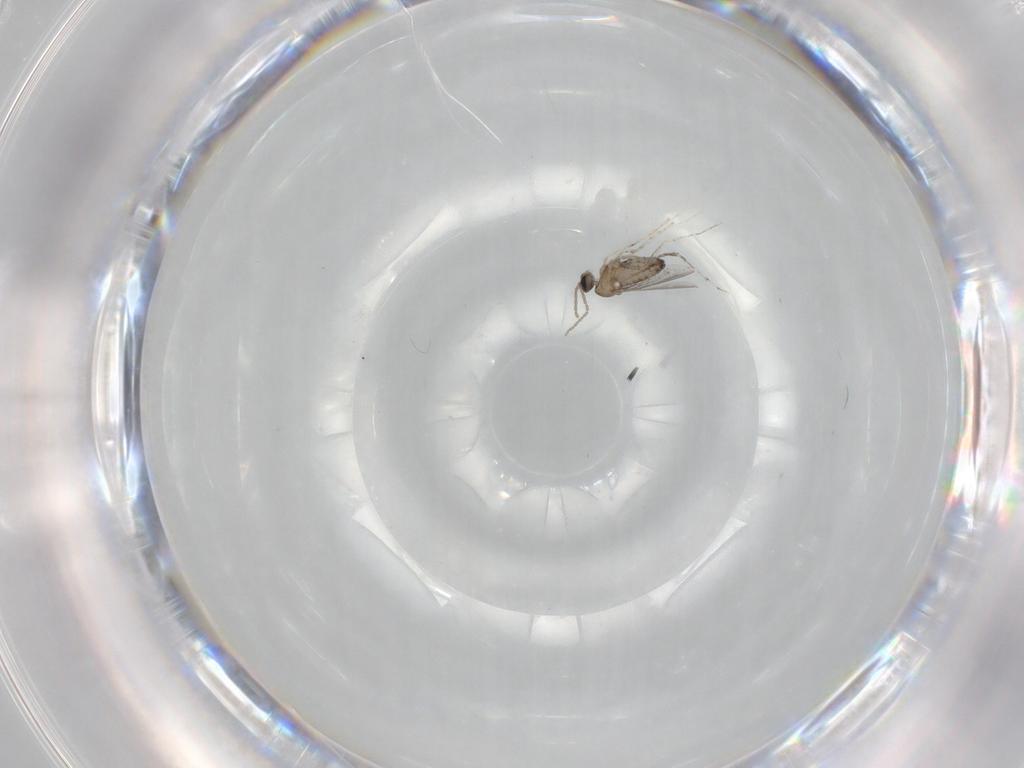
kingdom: Animalia
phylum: Arthropoda
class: Insecta
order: Diptera
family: Cecidomyiidae
